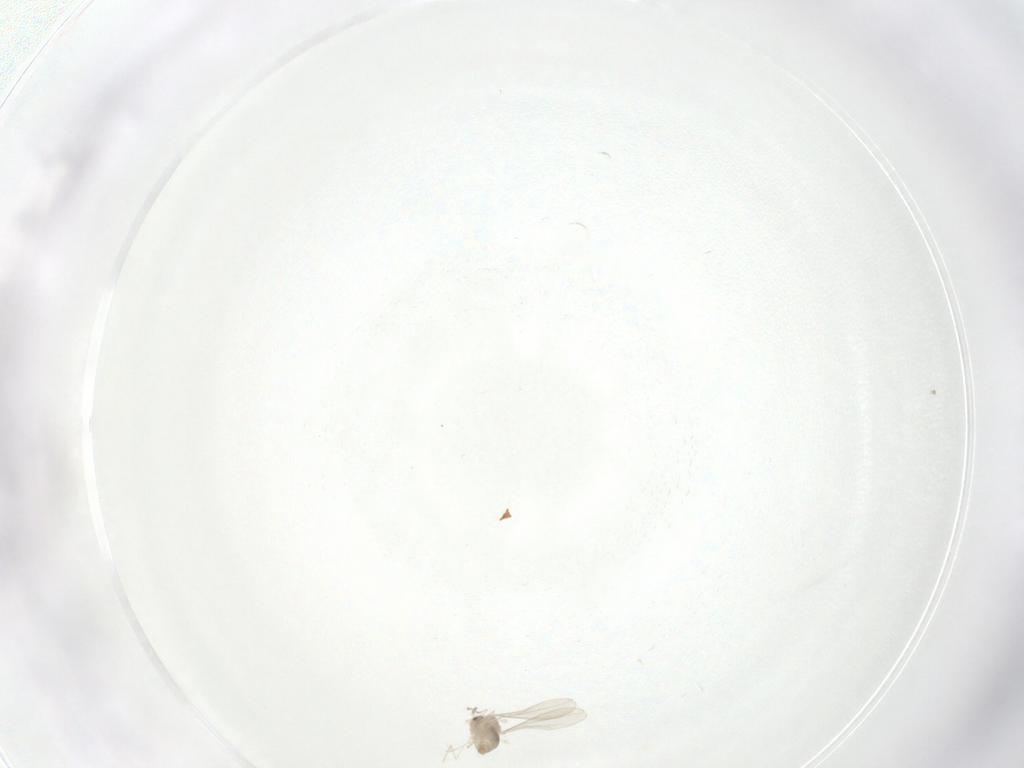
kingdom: Animalia
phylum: Arthropoda
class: Insecta
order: Diptera
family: Cecidomyiidae
